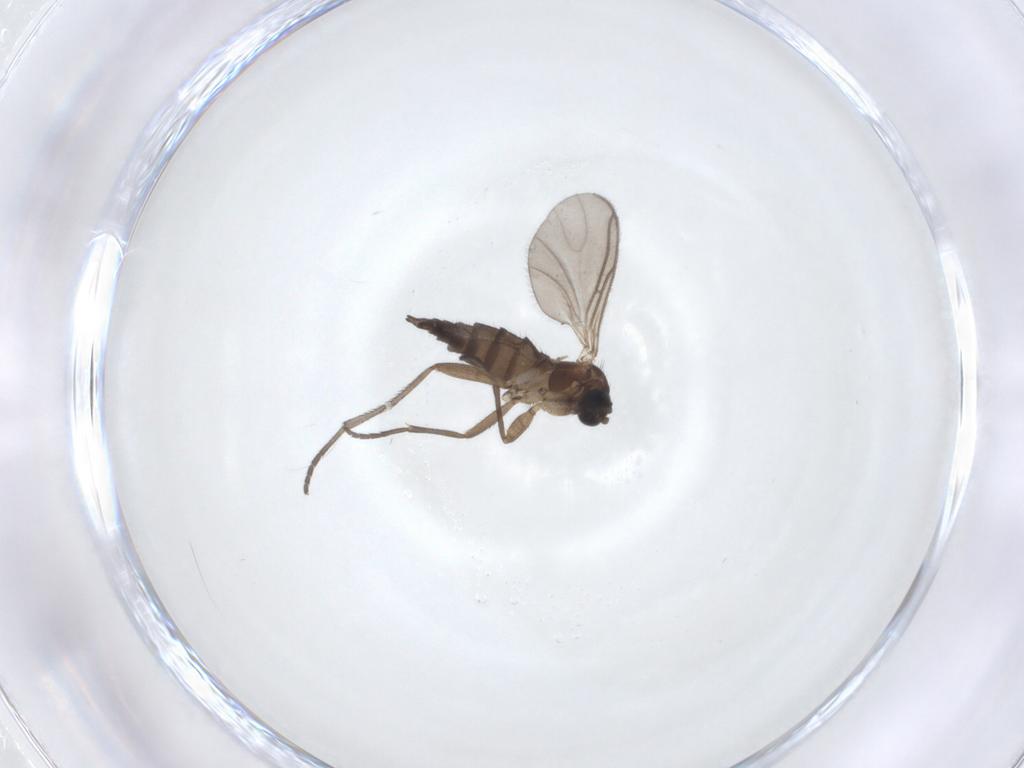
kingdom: Animalia
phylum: Arthropoda
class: Insecta
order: Diptera
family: Sciaridae
